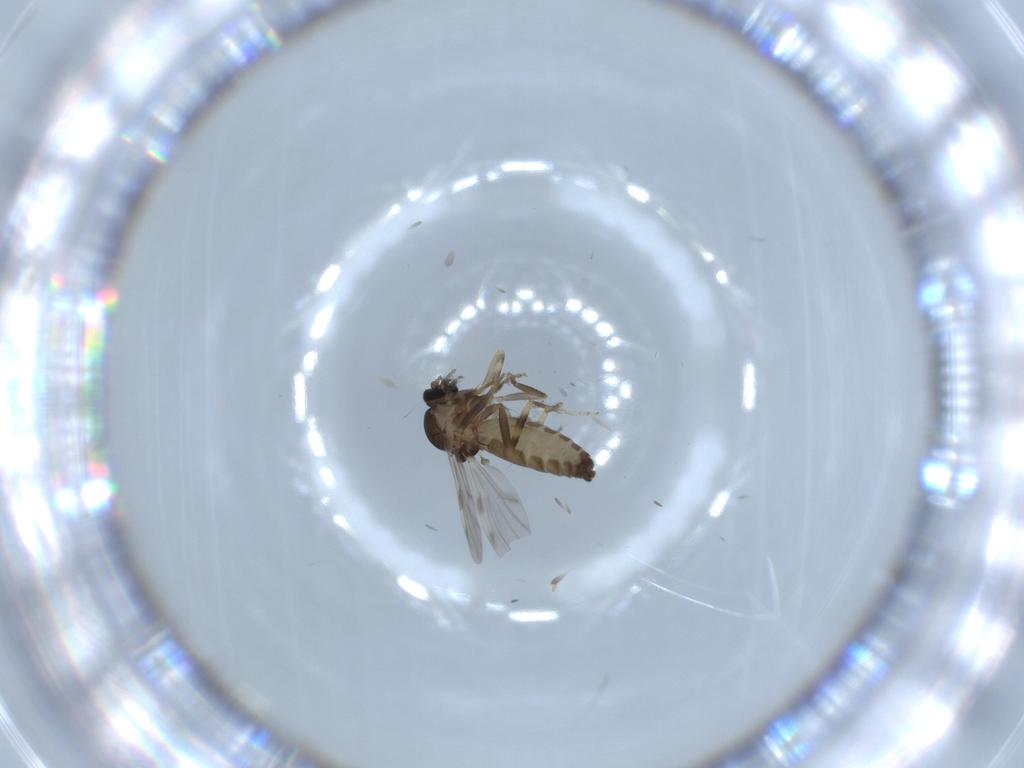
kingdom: Animalia
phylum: Arthropoda
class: Insecta
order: Diptera
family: Ceratopogonidae
